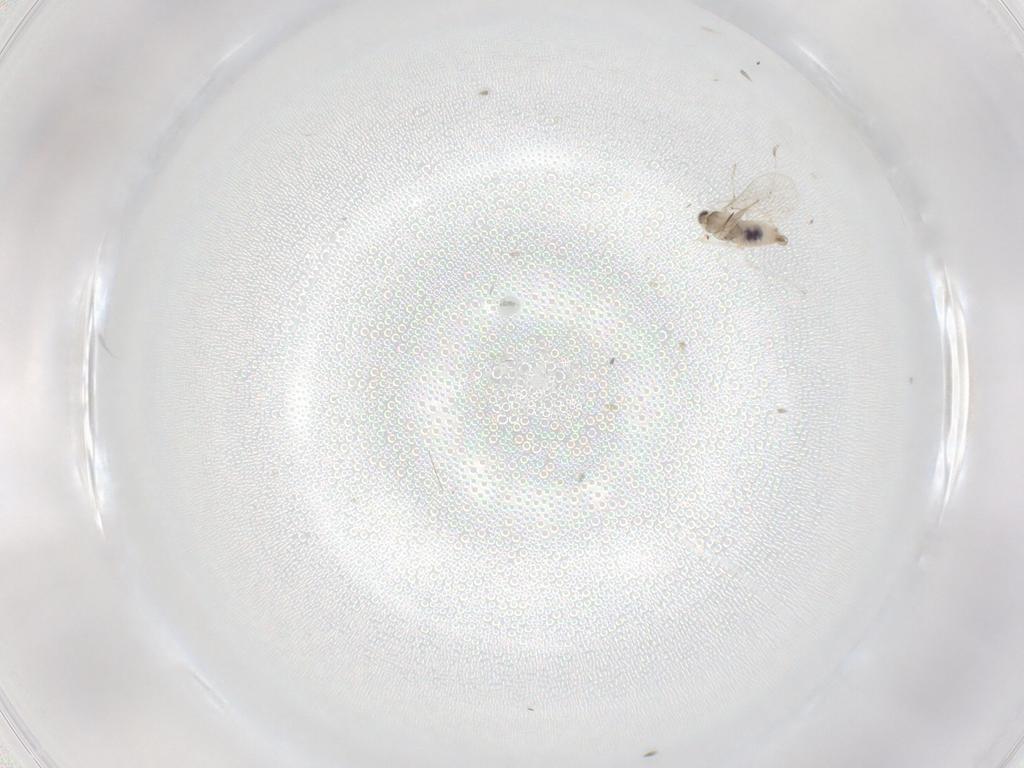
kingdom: Animalia
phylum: Arthropoda
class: Insecta
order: Diptera
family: Cecidomyiidae
